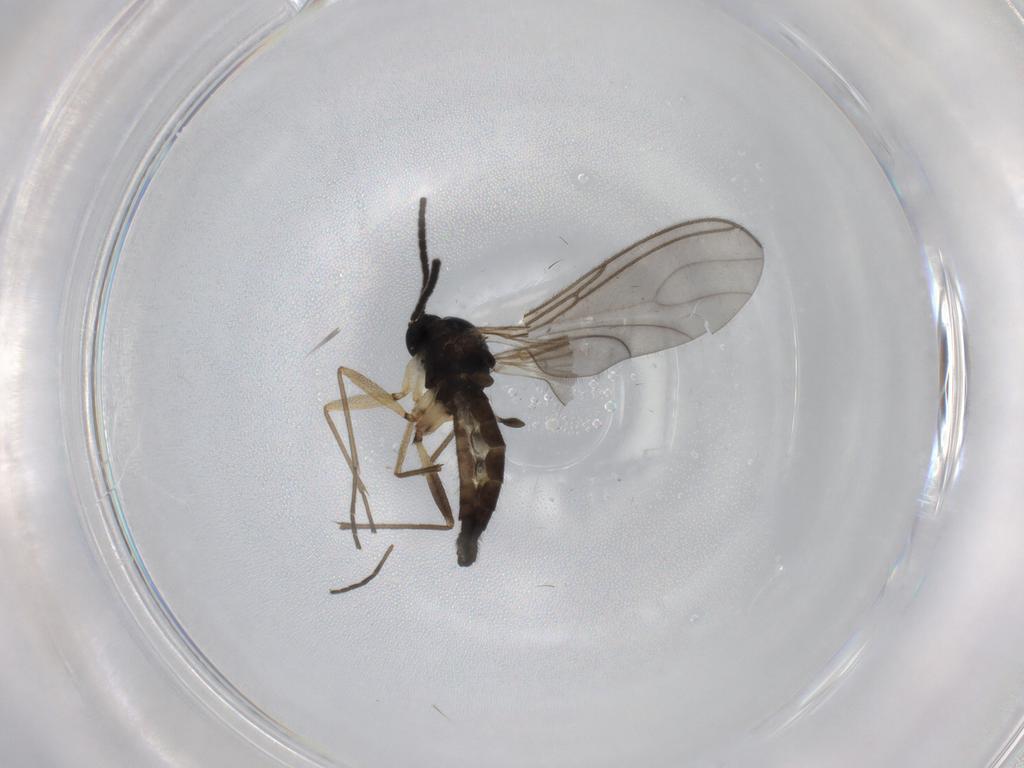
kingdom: Animalia
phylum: Arthropoda
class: Insecta
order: Diptera
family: Sciaridae
